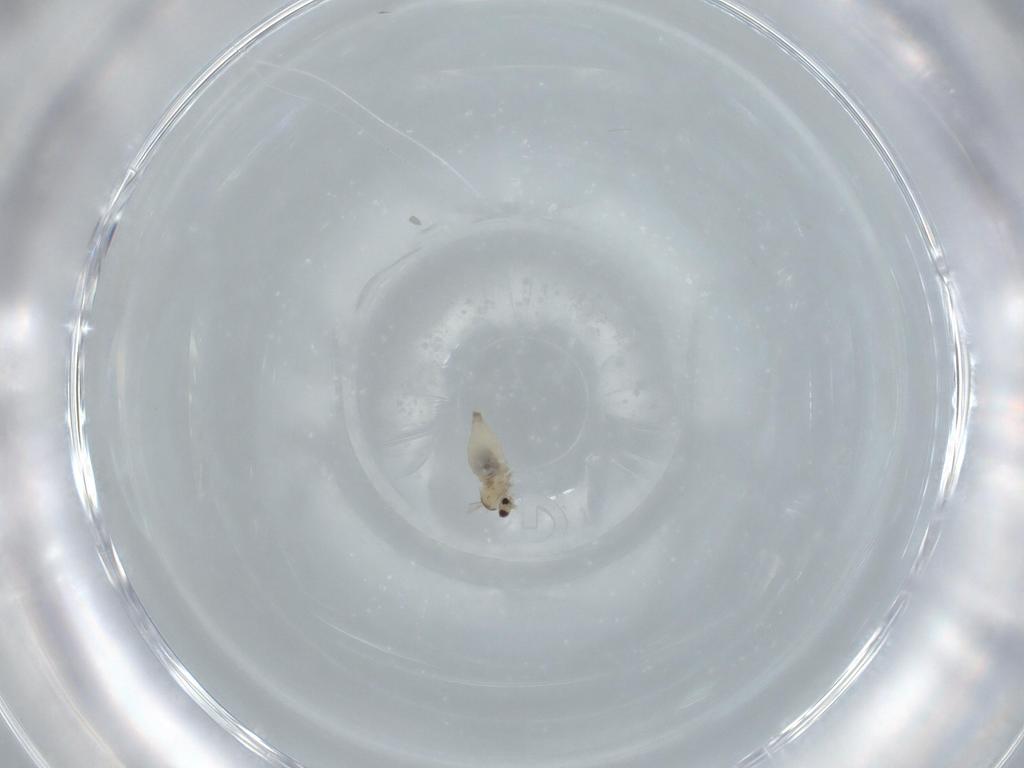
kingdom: Animalia
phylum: Arthropoda
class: Insecta
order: Diptera
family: Cecidomyiidae
